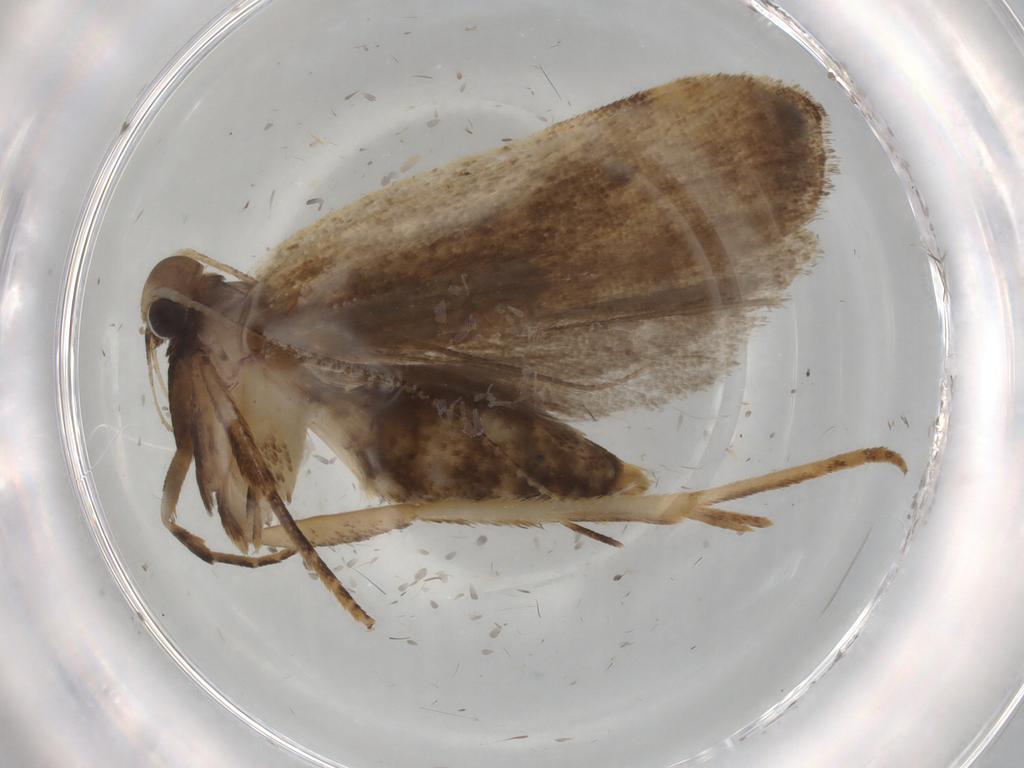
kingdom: Animalia
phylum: Arthropoda
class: Insecta
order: Lepidoptera
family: Gelechiidae
